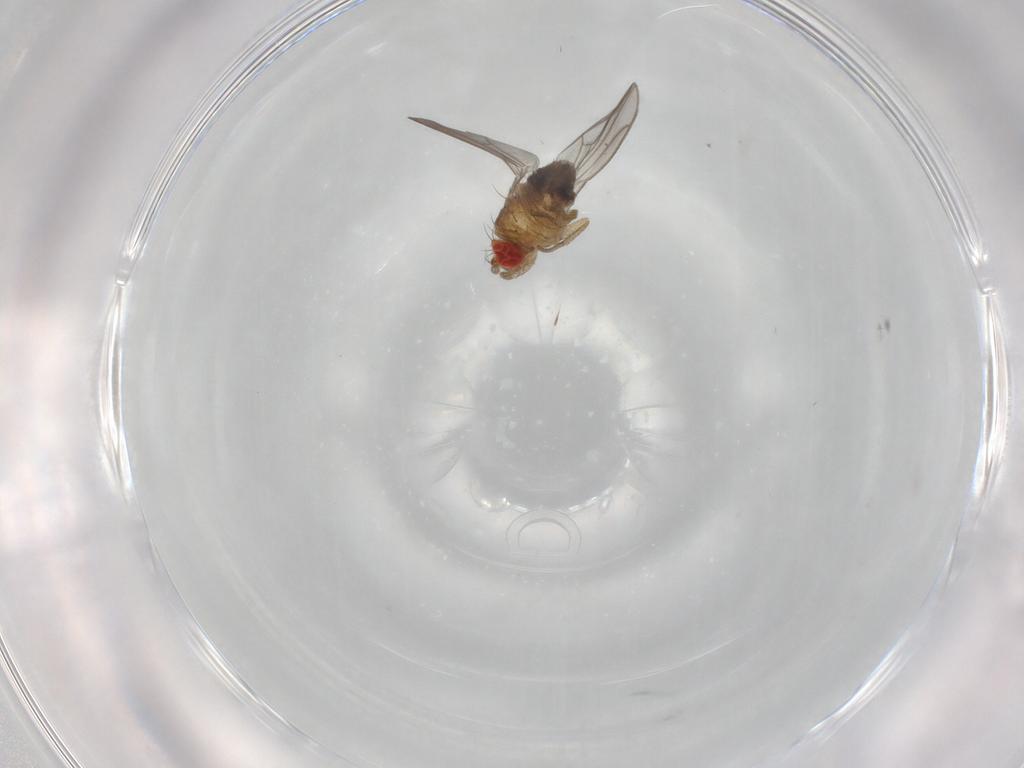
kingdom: Animalia
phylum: Arthropoda
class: Insecta
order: Diptera
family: Drosophilidae
